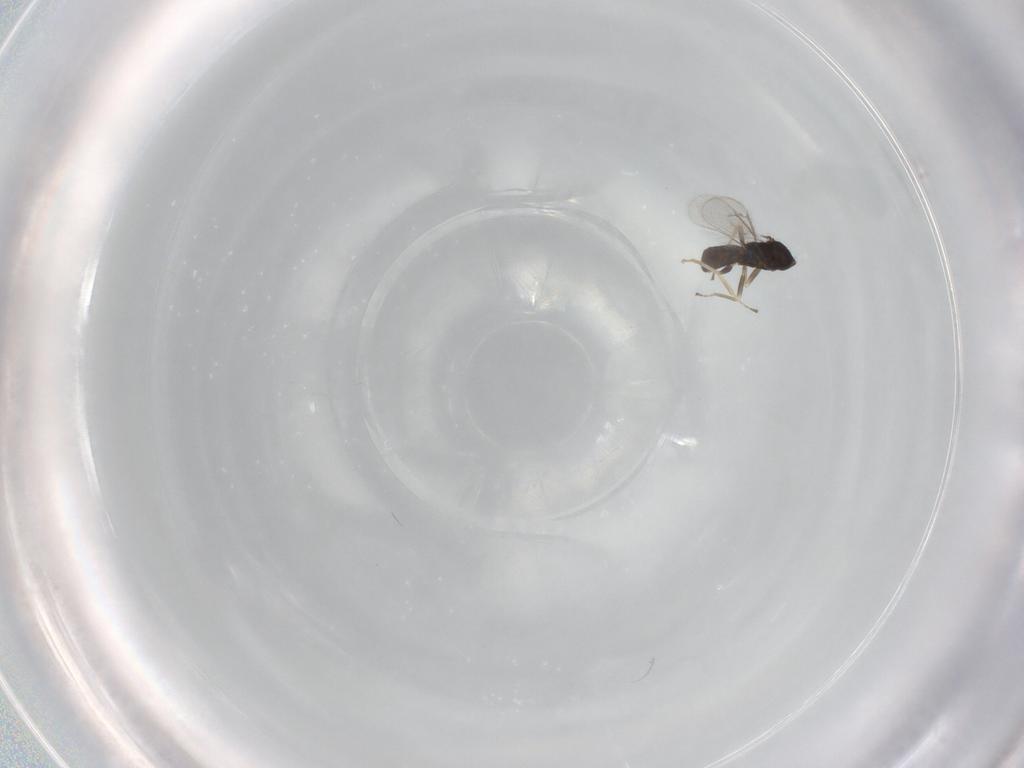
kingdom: Animalia
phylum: Arthropoda
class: Insecta
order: Hymenoptera
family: Eulophidae
